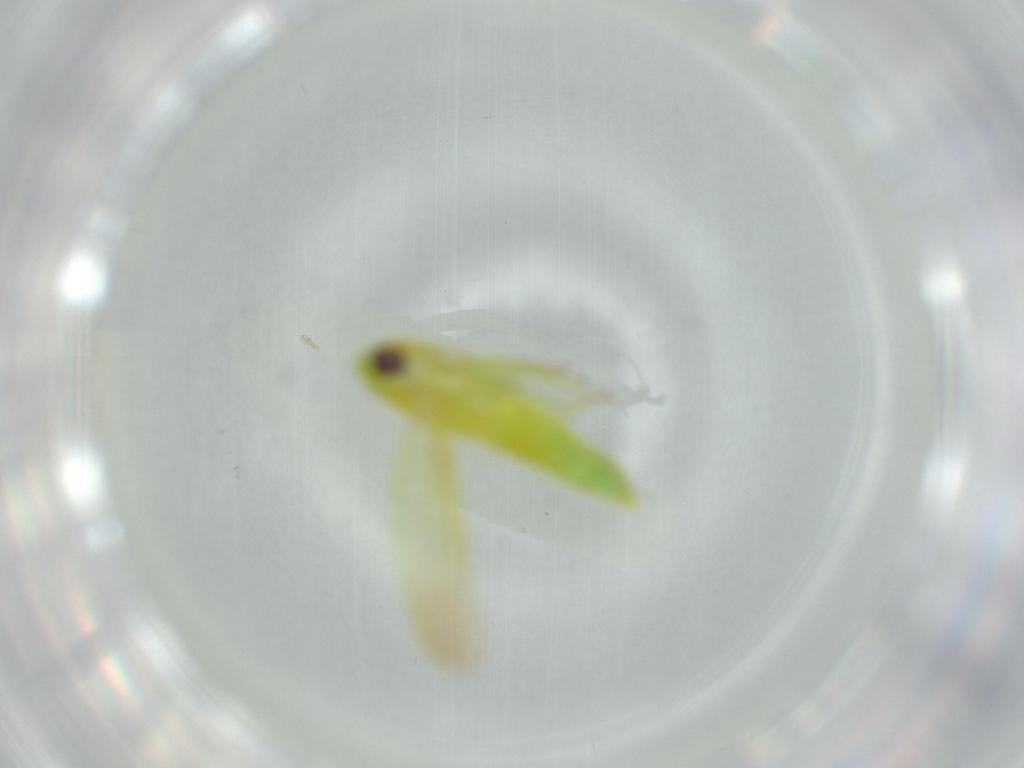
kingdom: Animalia
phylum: Arthropoda
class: Insecta
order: Hemiptera
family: Cicadellidae
